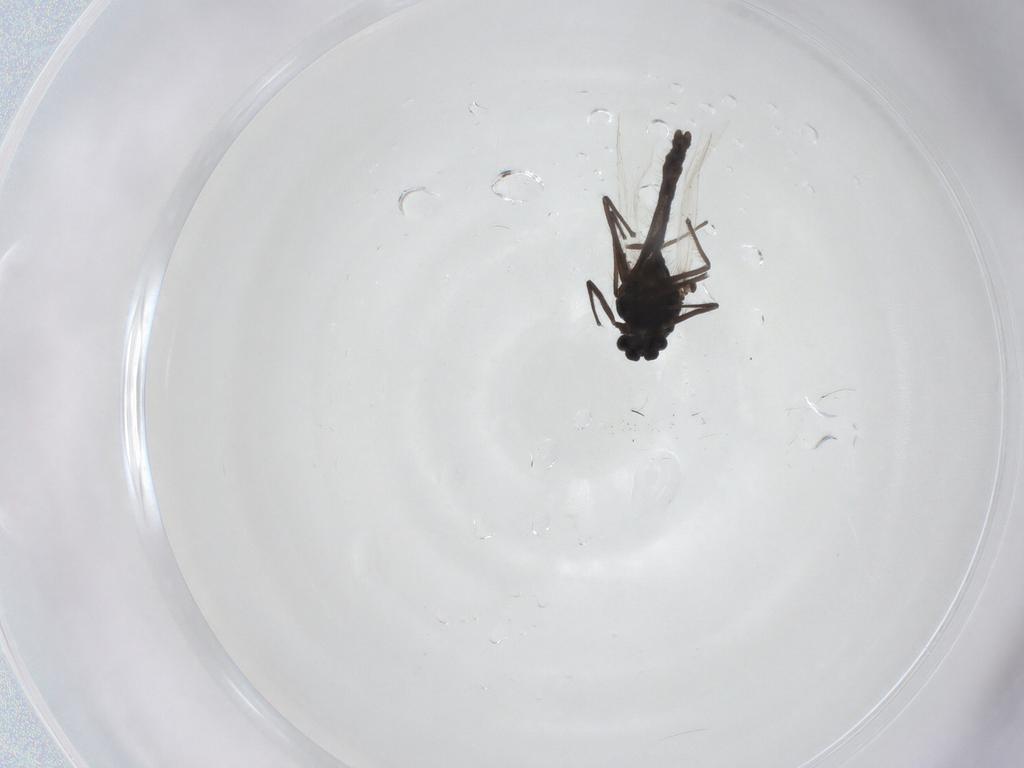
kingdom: Animalia
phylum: Arthropoda
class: Insecta
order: Diptera
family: Chironomidae
